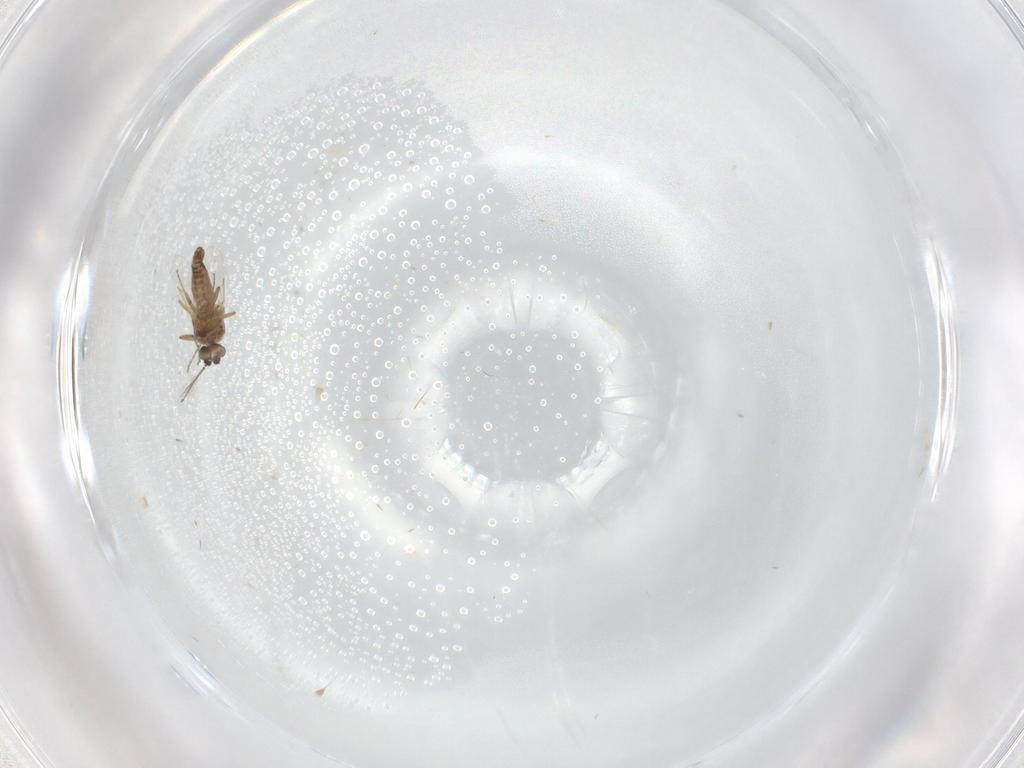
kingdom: Animalia
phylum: Arthropoda
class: Insecta
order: Diptera
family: Ceratopogonidae
